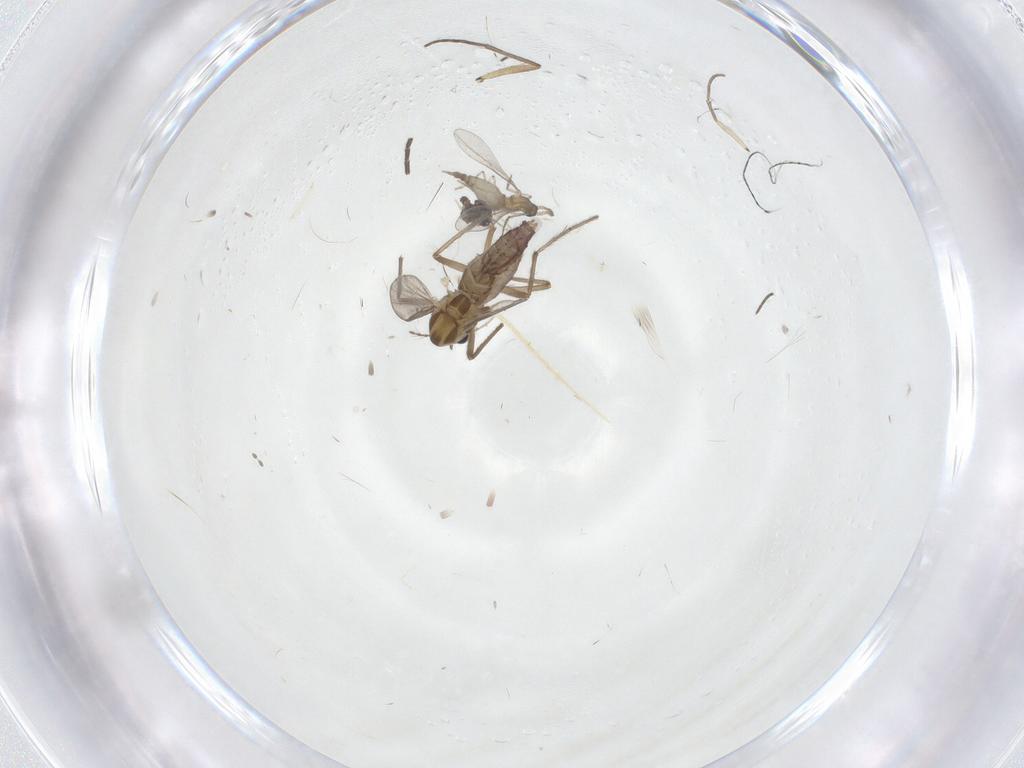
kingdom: Animalia
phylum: Arthropoda
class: Insecta
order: Diptera
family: Chironomidae
